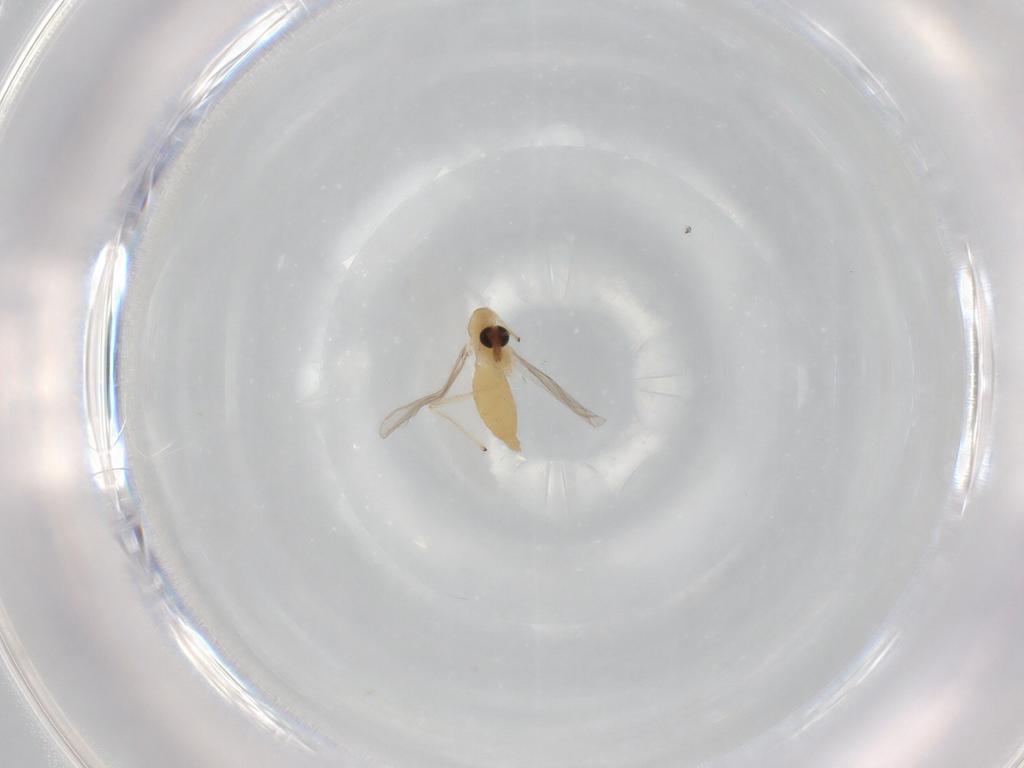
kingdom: Animalia
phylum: Arthropoda
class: Insecta
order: Diptera
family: Chironomidae
